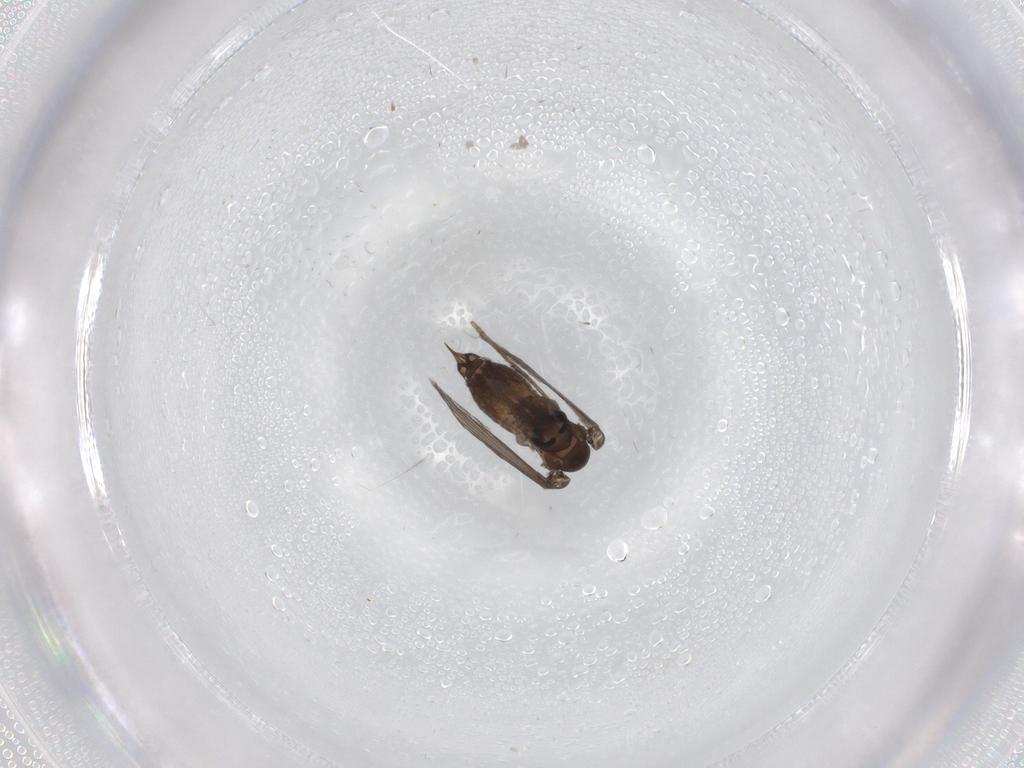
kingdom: Animalia
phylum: Arthropoda
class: Insecta
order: Diptera
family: Psychodidae
